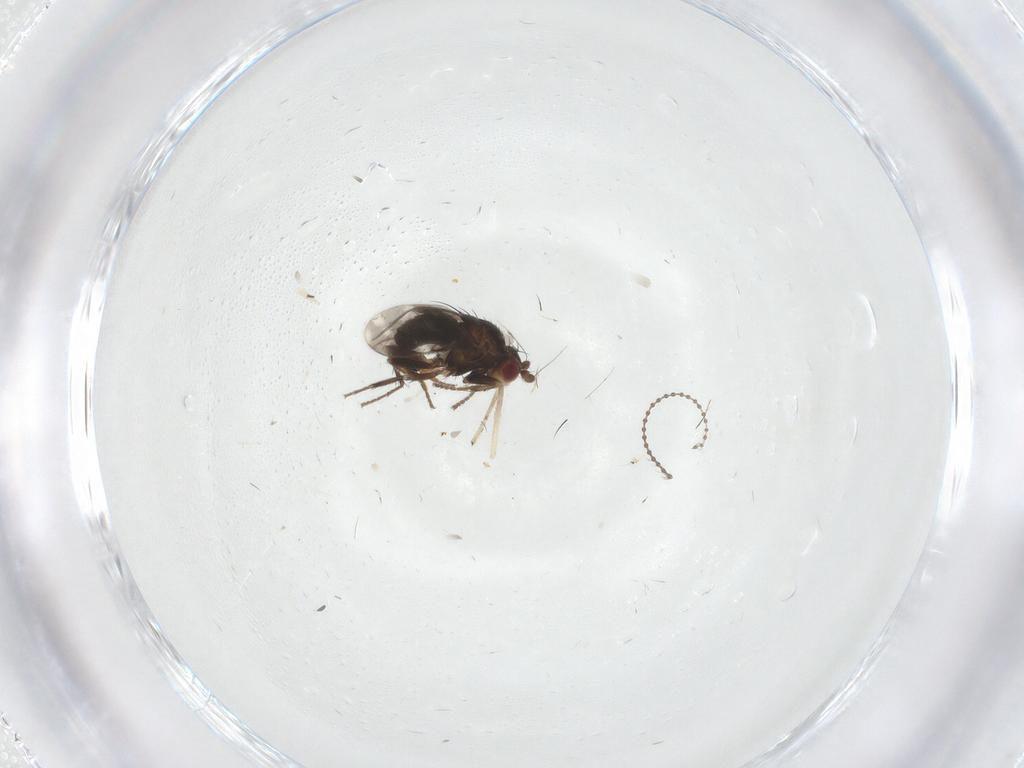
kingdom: Animalia
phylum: Arthropoda
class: Insecta
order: Diptera
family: Sphaeroceridae
